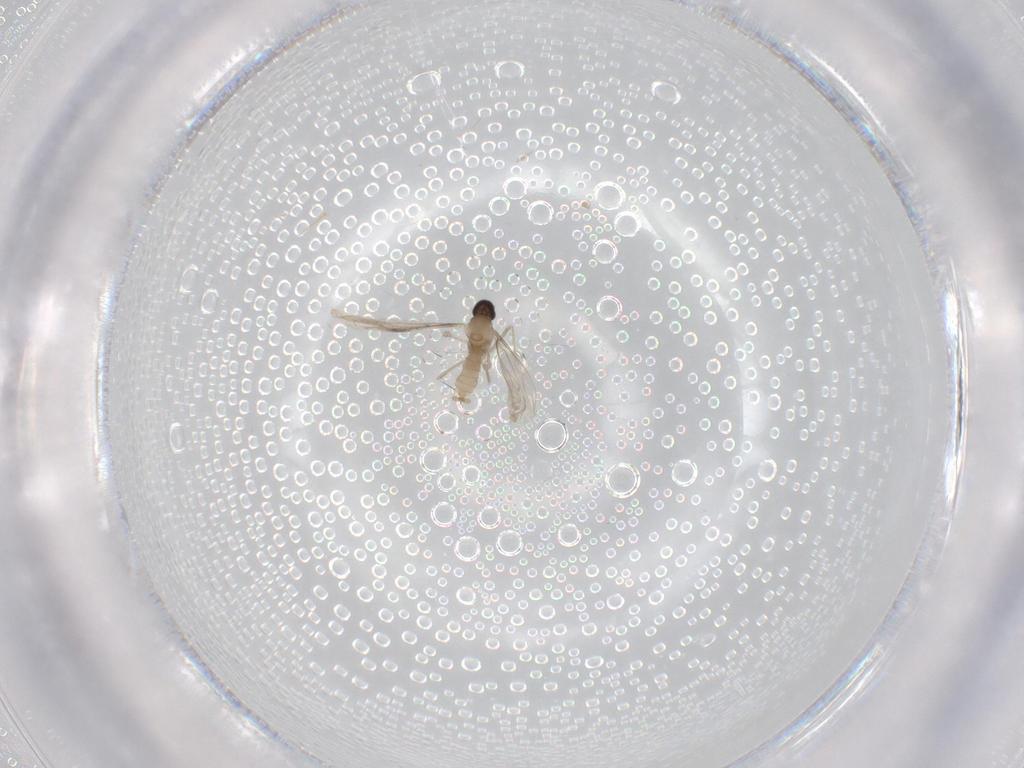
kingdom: Animalia
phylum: Arthropoda
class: Insecta
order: Diptera
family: Cecidomyiidae
